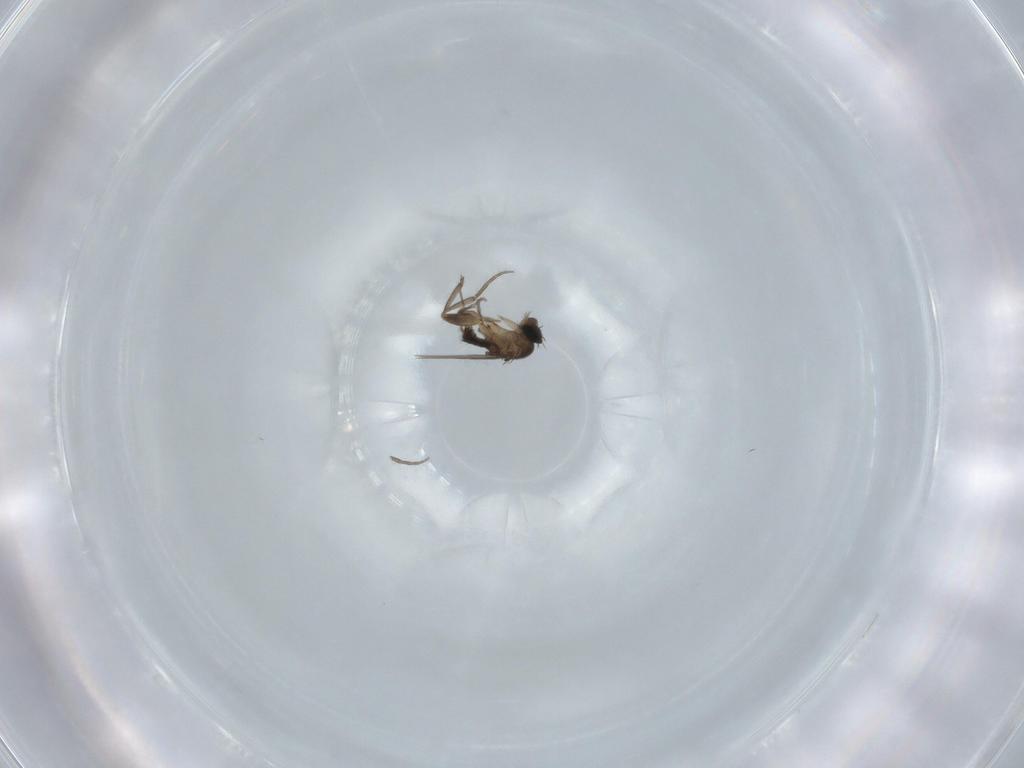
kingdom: Animalia
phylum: Arthropoda
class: Insecta
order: Diptera
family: Phoridae
